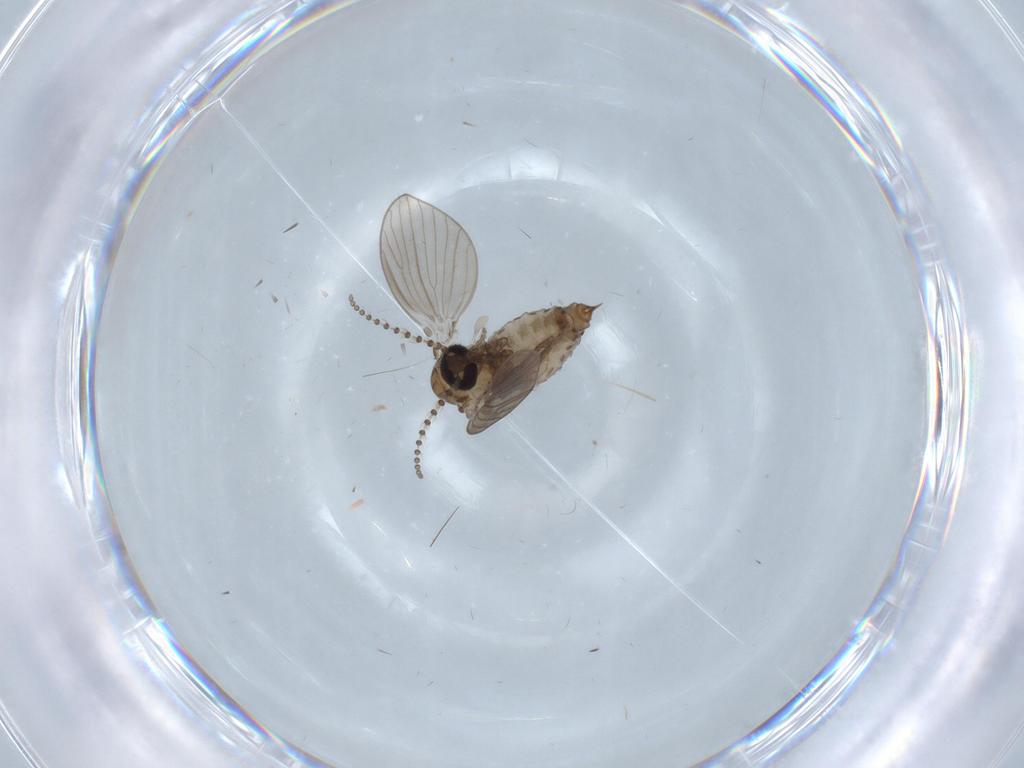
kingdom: Animalia
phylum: Arthropoda
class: Insecta
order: Diptera
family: Psychodidae
